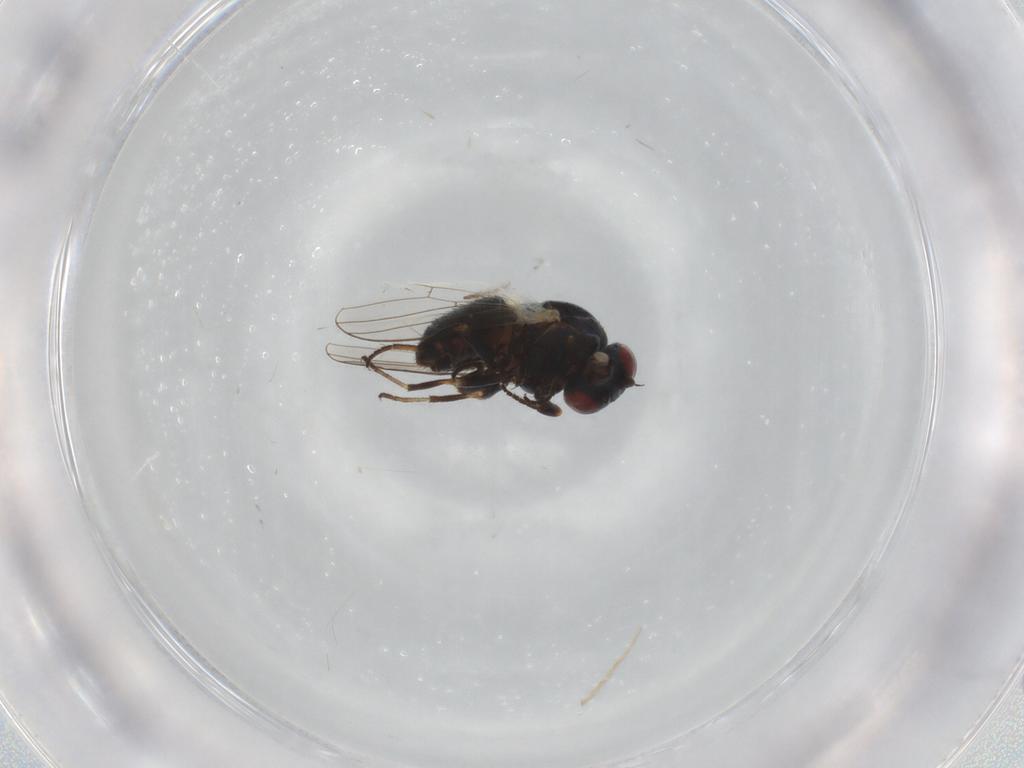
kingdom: Animalia
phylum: Arthropoda
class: Insecta
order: Diptera
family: Chamaemyiidae
